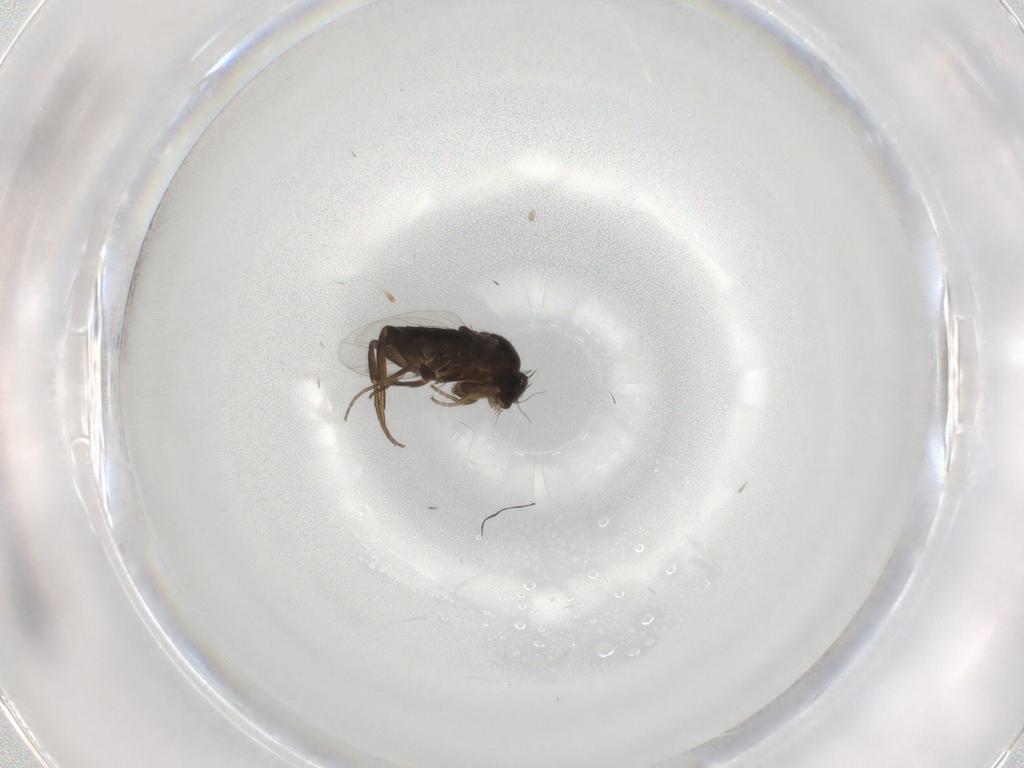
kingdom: Animalia
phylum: Arthropoda
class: Insecta
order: Diptera
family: Phoridae
